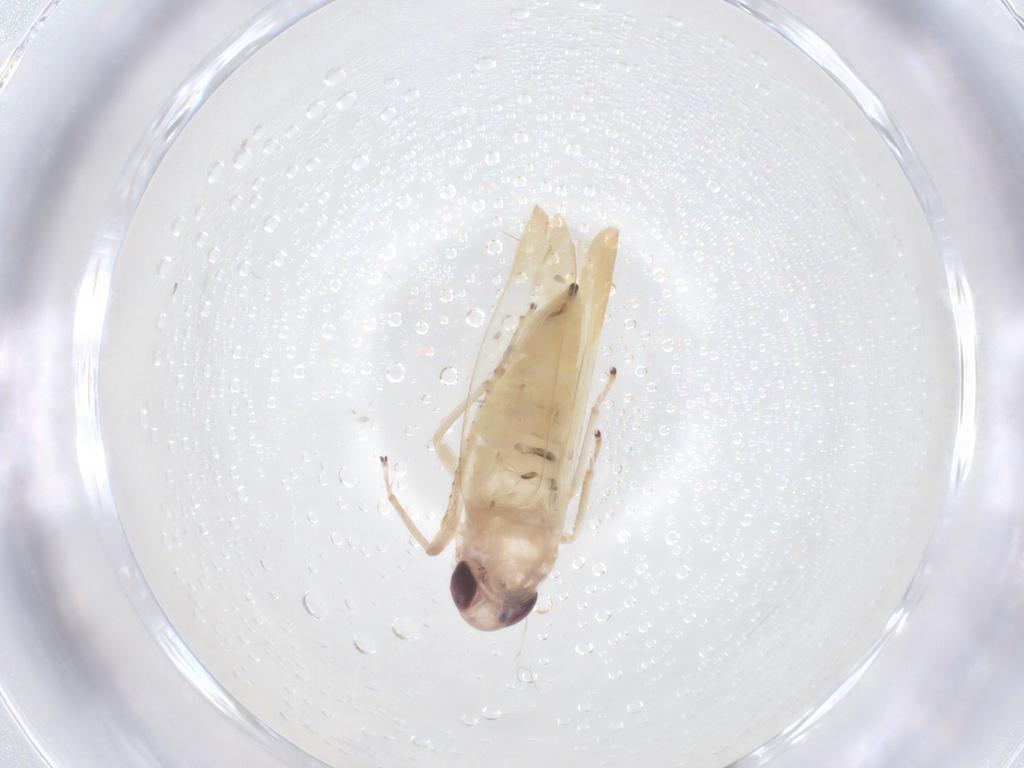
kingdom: Animalia
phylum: Arthropoda
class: Insecta
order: Hemiptera
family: Cicadellidae
